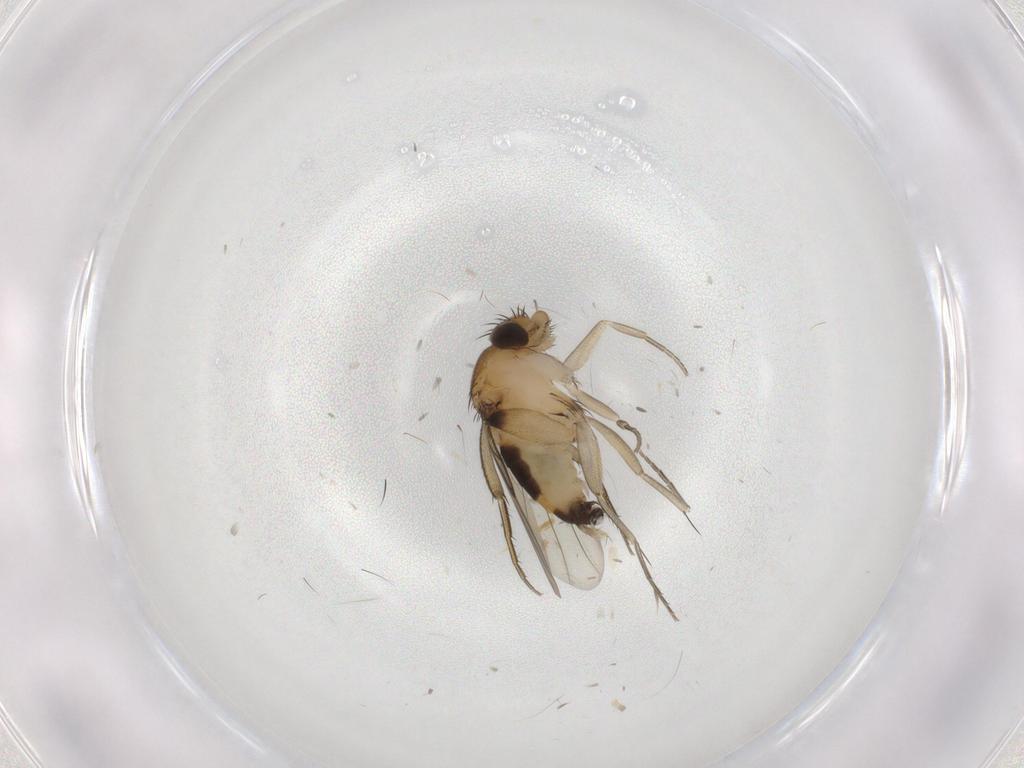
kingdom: Animalia
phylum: Arthropoda
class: Insecta
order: Diptera
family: Phoridae
